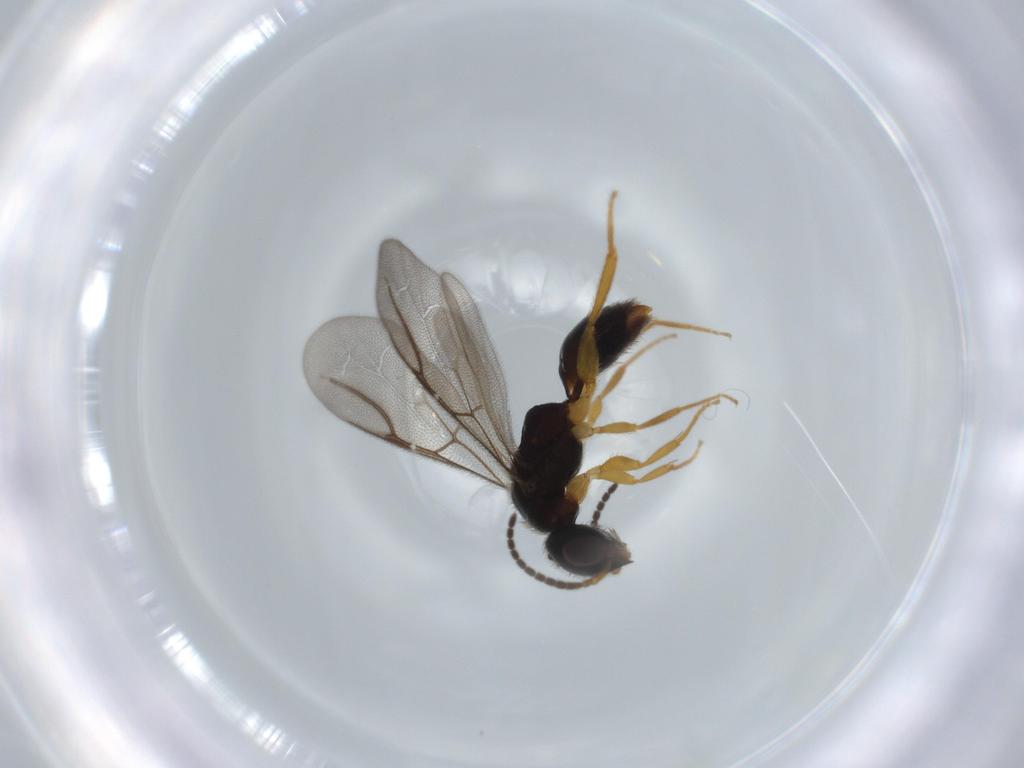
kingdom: Animalia
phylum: Arthropoda
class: Insecta
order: Hymenoptera
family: Bethylidae
